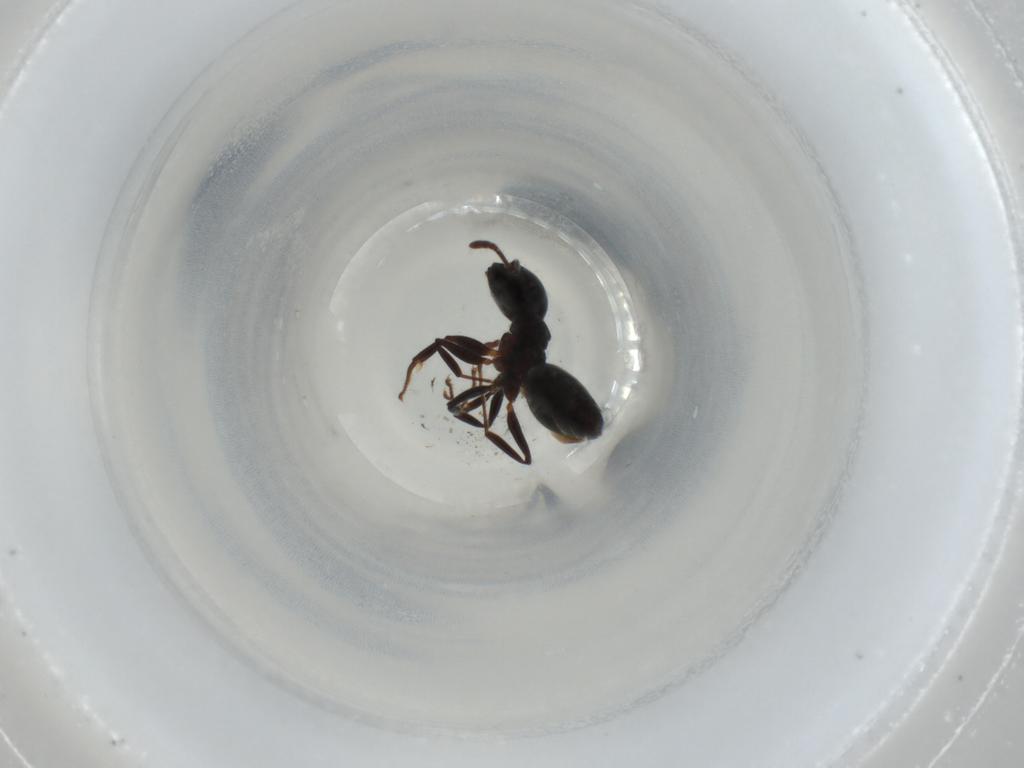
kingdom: Animalia
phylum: Arthropoda
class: Insecta
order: Hymenoptera
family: Formicidae
